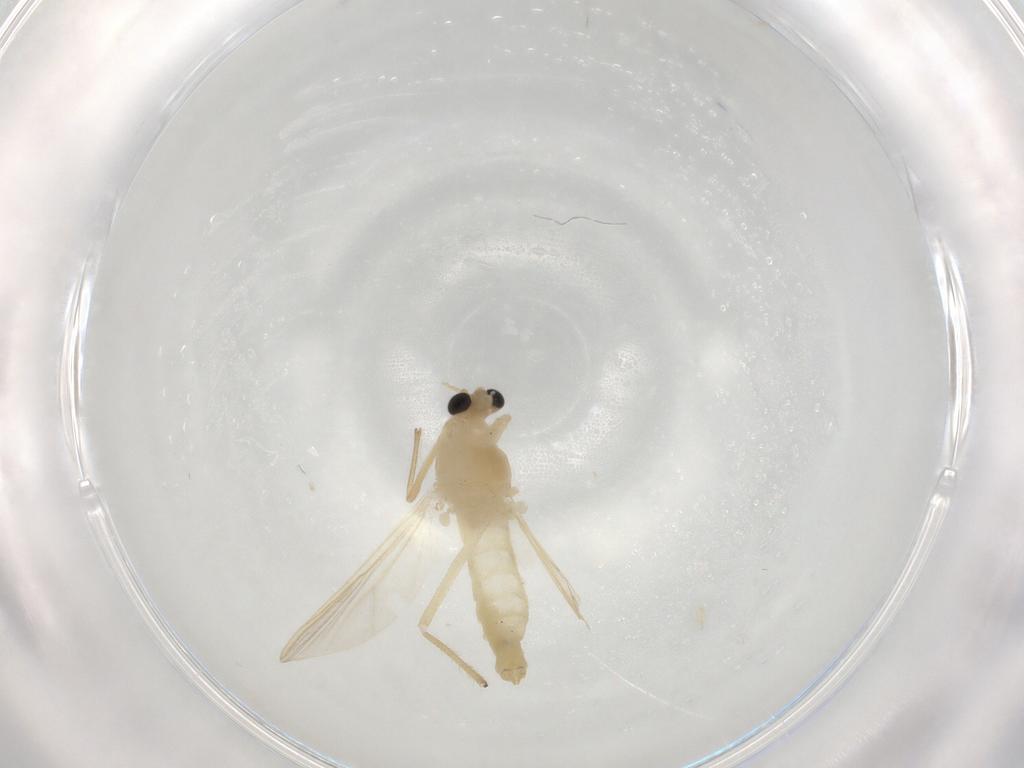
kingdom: Animalia
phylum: Arthropoda
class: Insecta
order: Diptera
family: Chironomidae
